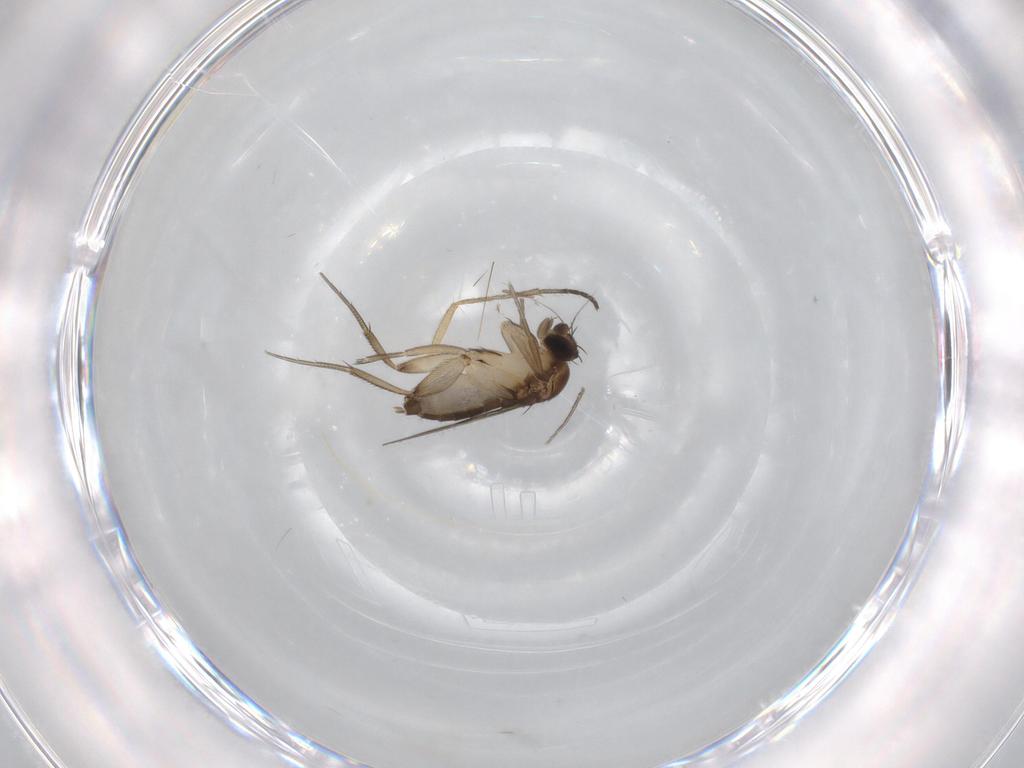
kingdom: Animalia
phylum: Arthropoda
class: Insecta
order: Diptera
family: Phoridae
